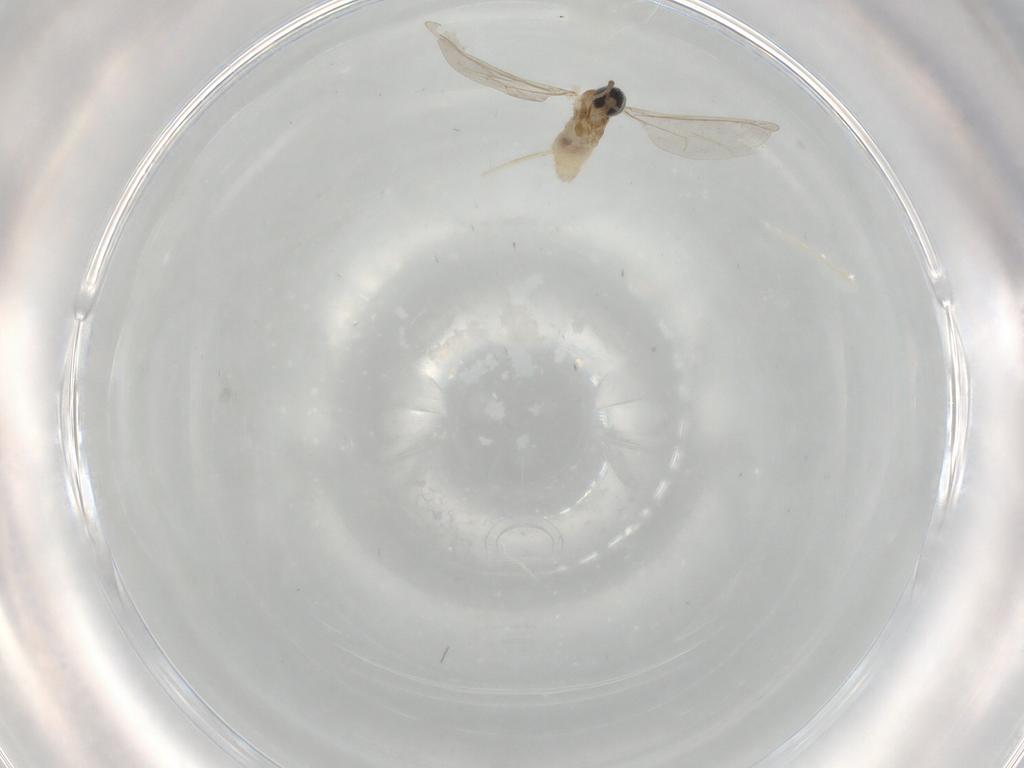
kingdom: Animalia
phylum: Arthropoda
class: Insecta
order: Diptera
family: Cecidomyiidae
